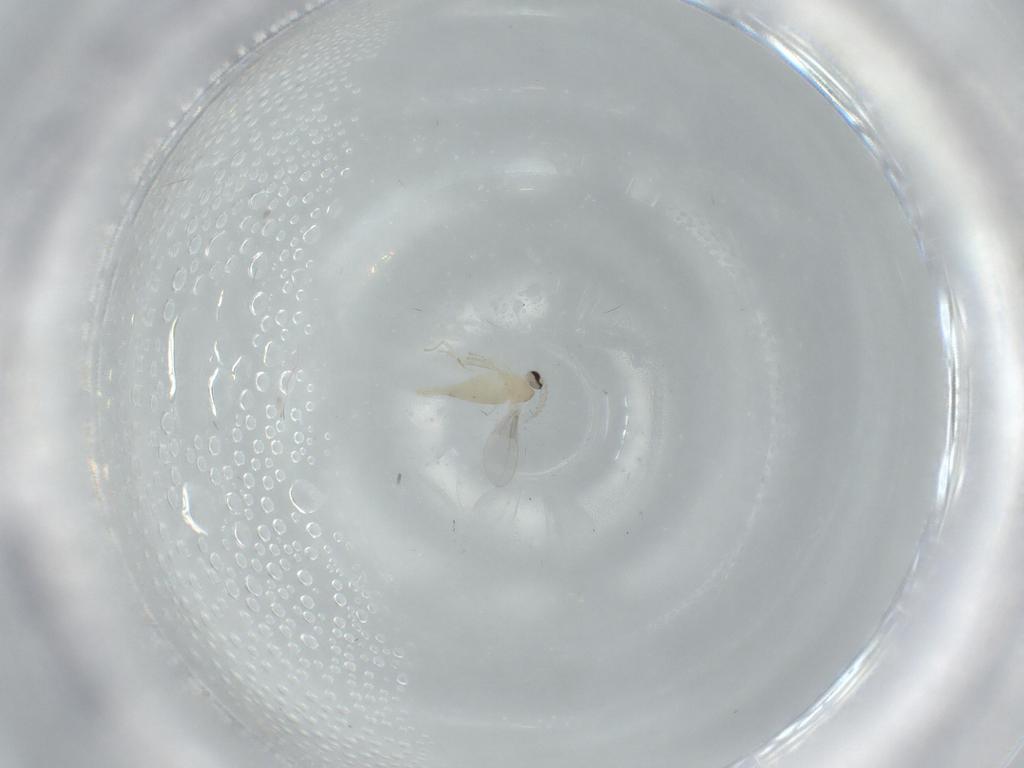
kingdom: Animalia
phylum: Arthropoda
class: Insecta
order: Diptera
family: Cecidomyiidae
